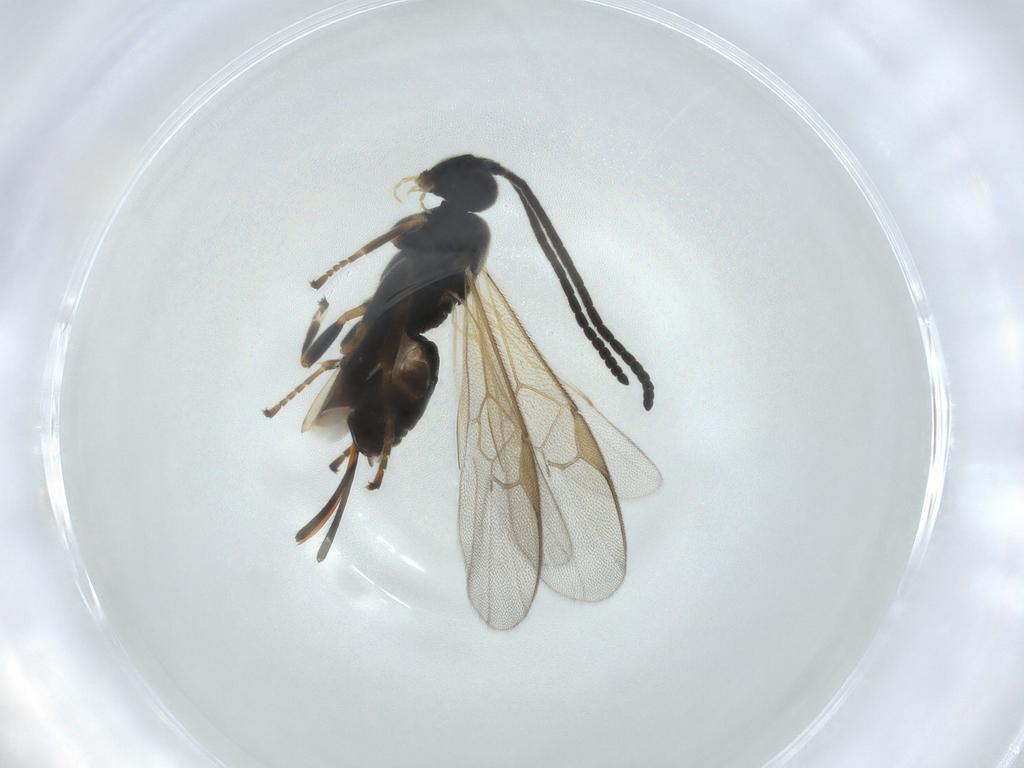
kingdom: Animalia
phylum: Arthropoda
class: Insecta
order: Hymenoptera
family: Braconidae
